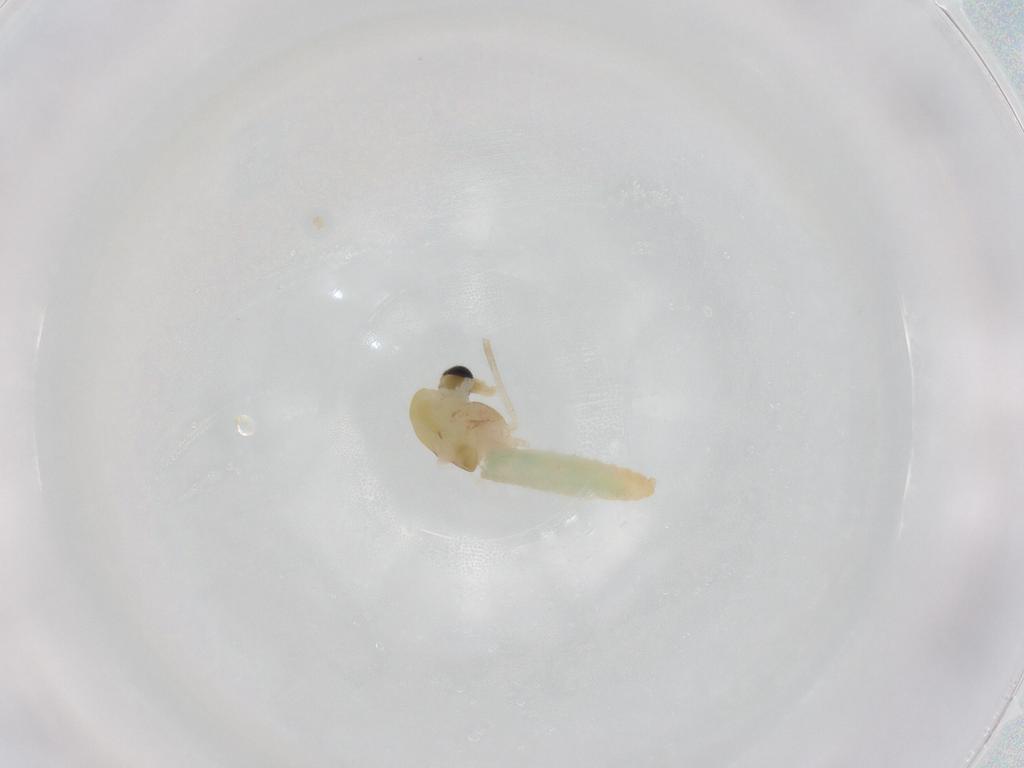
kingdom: Animalia
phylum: Arthropoda
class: Insecta
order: Diptera
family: Chironomidae
